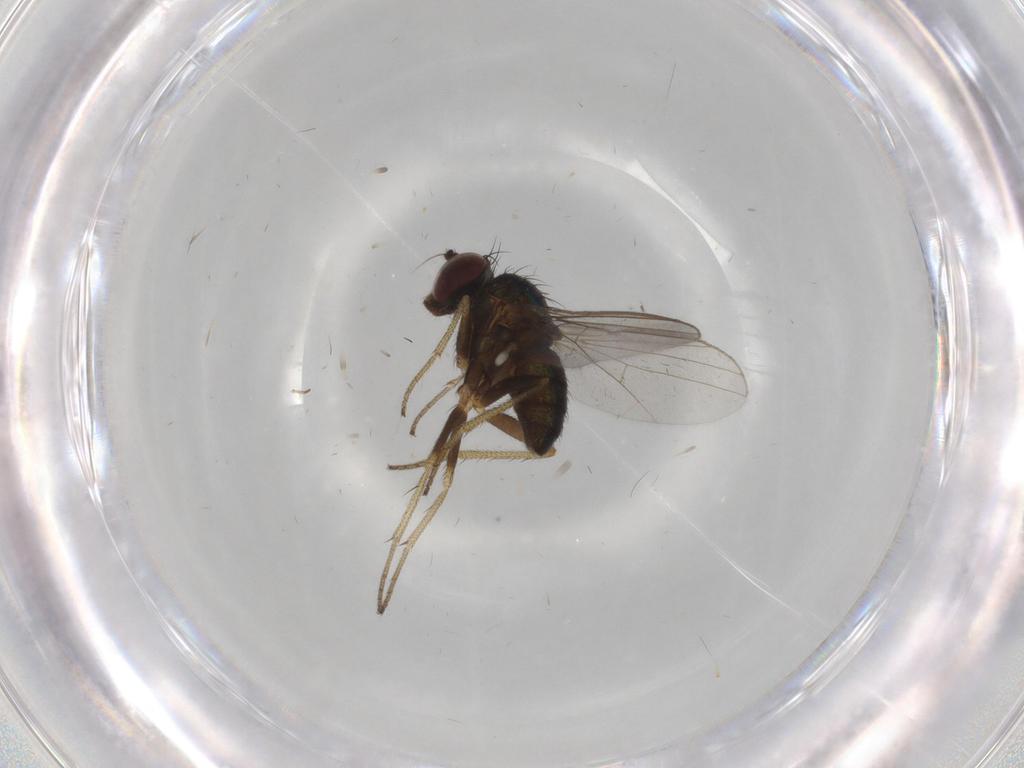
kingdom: Animalia
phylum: Arthropoda
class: Insecta
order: Diptera
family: Dolichopodidae
